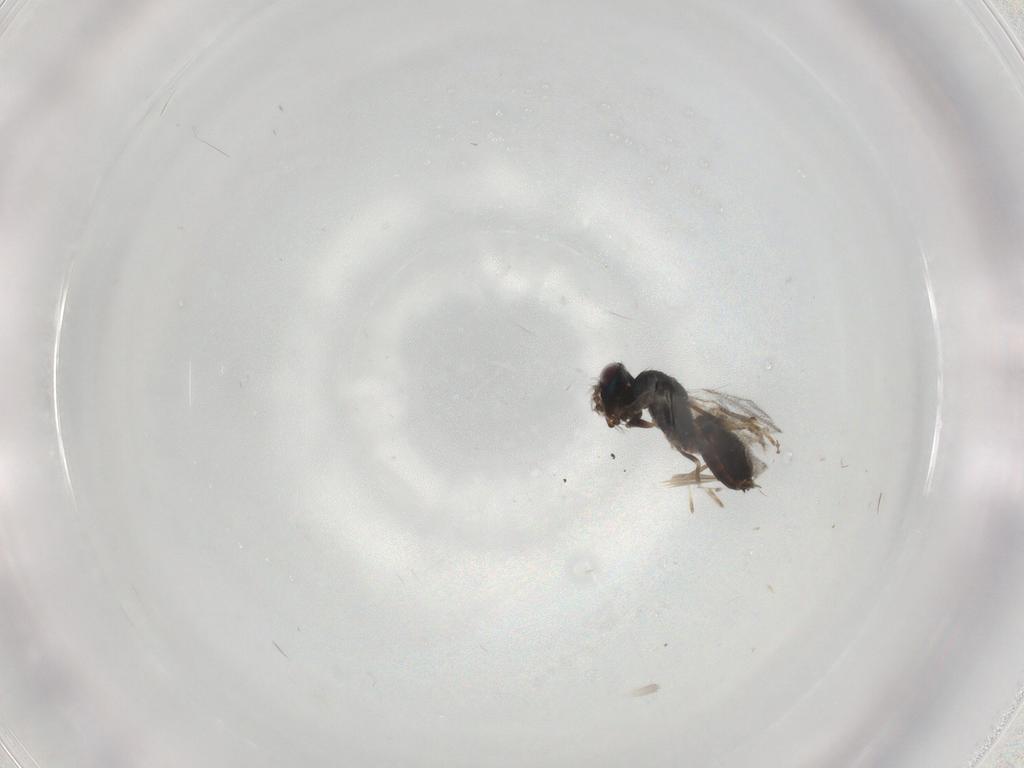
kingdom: Animalia
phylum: Arthropoda
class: Insecta
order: Hymenoptera
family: Pirenidae
